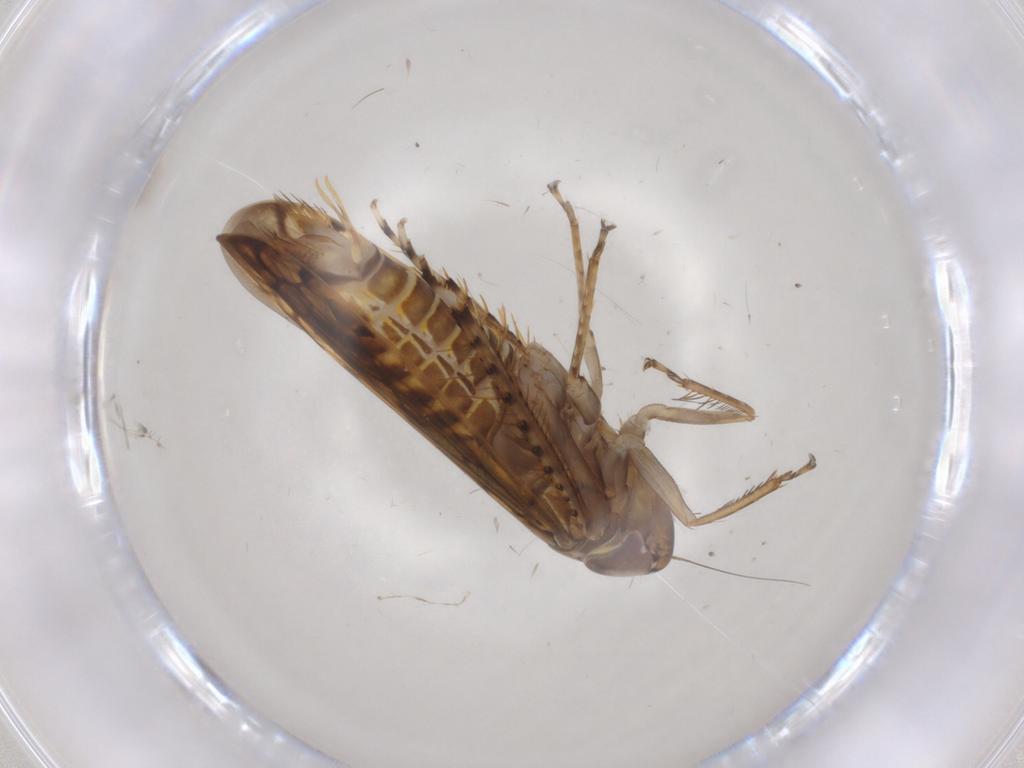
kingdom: Animalia
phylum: Arthropoda
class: Insecta
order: Hemiptera
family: Cicadellidae
